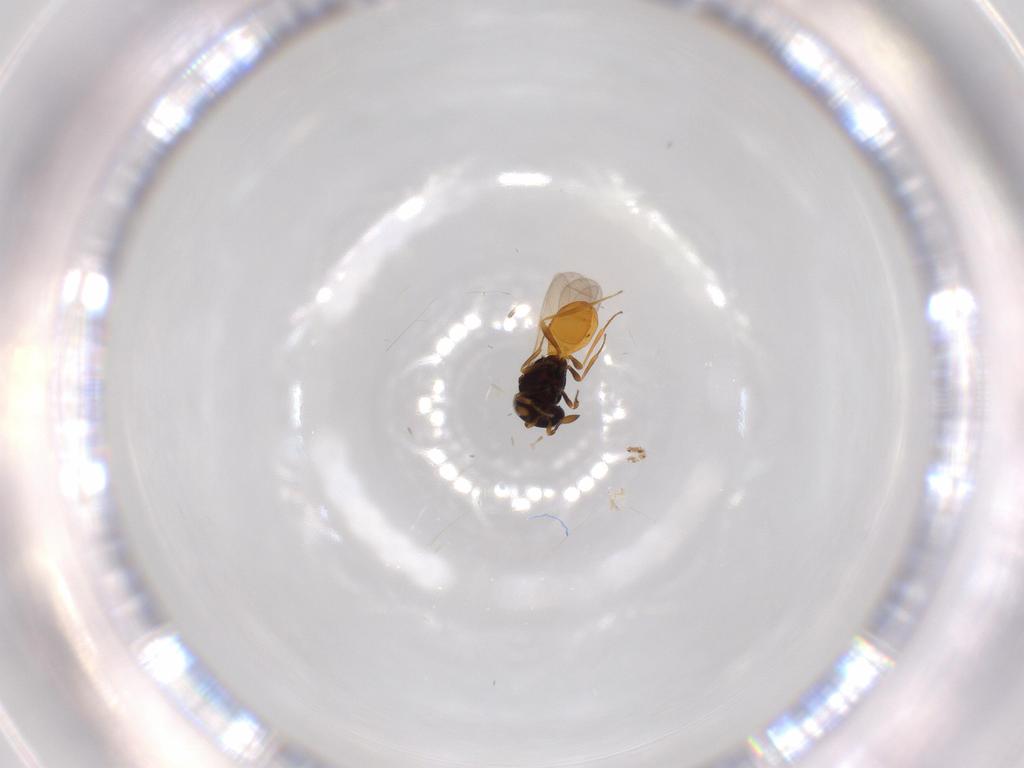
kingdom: Animalia
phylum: Arthropoda
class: Insecta
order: Hymenoptera
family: Scelionidae
